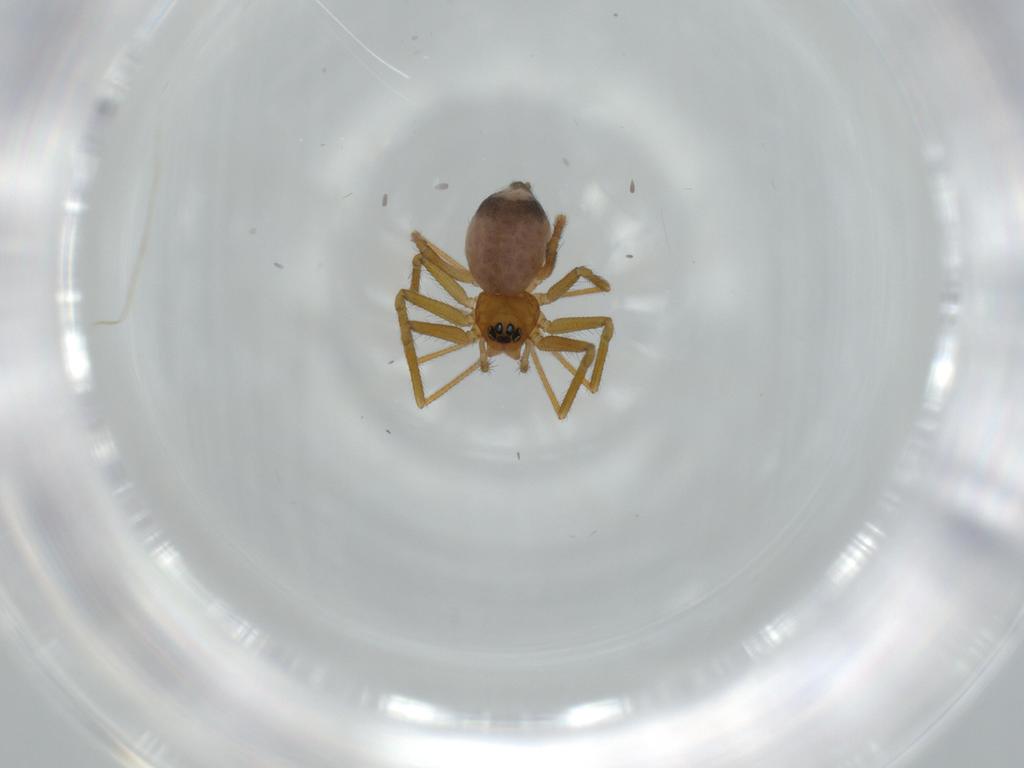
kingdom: Animalia
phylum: Arthropoda
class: Arachnida
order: Araneae
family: Linyphiidae
